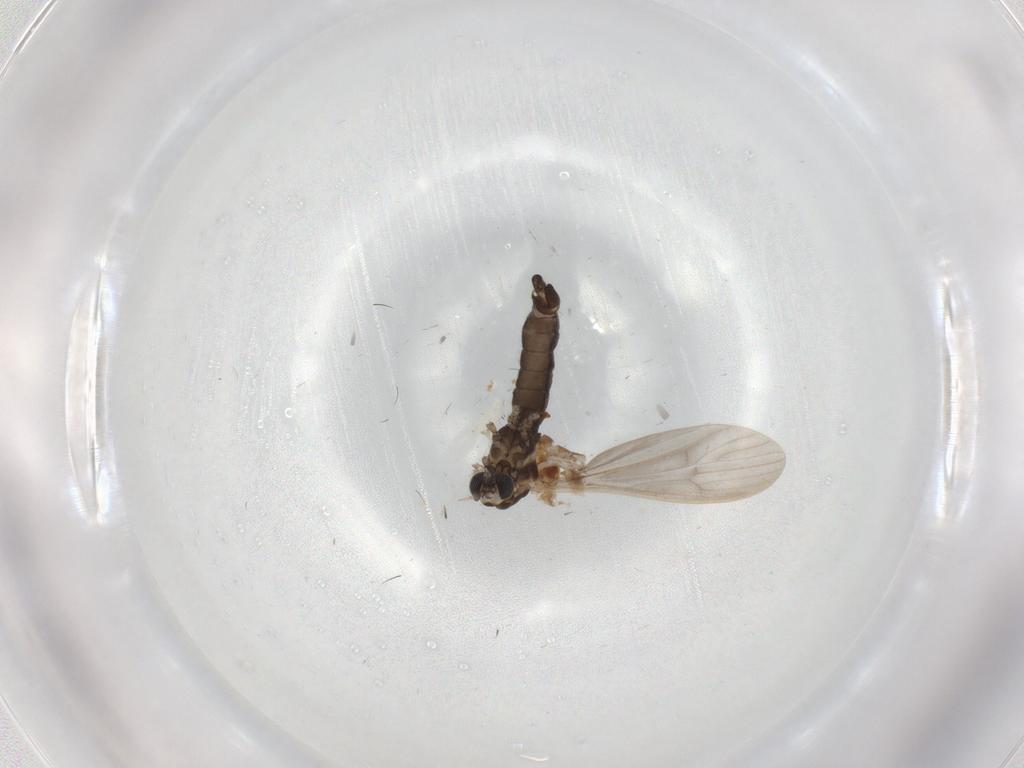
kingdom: Animalia
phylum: Arthropoda
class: Insecta
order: Diptera
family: Limoniidae
